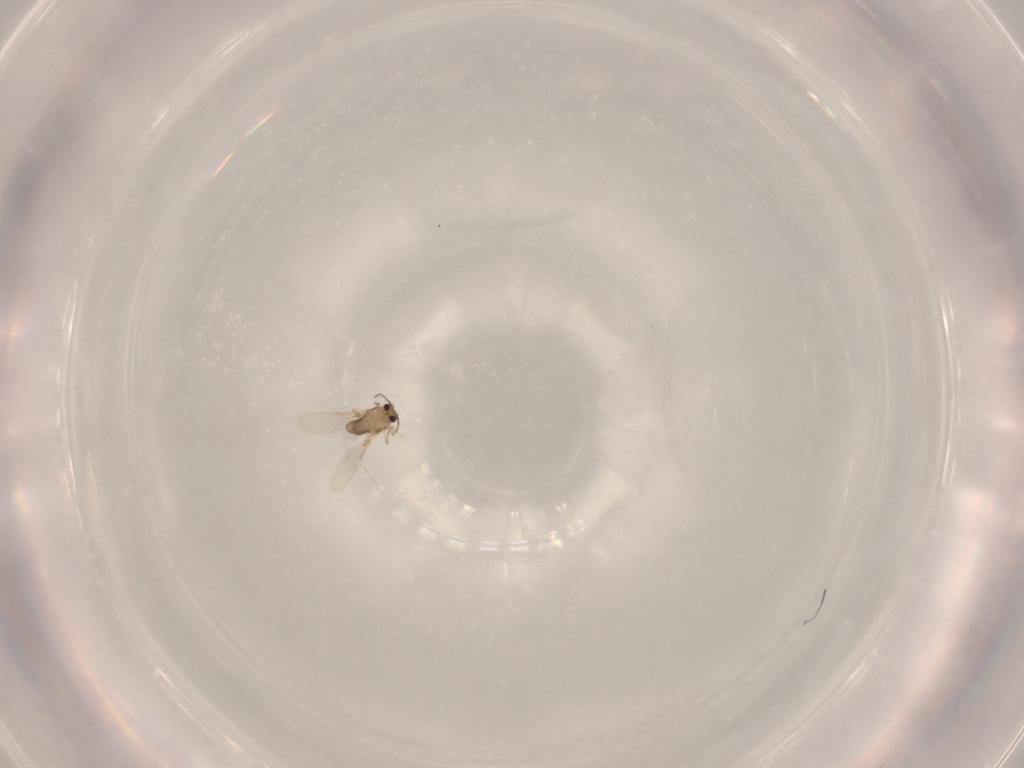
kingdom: Animalia
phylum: Arthropoda
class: Insecta
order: Diptera
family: Phoridae
